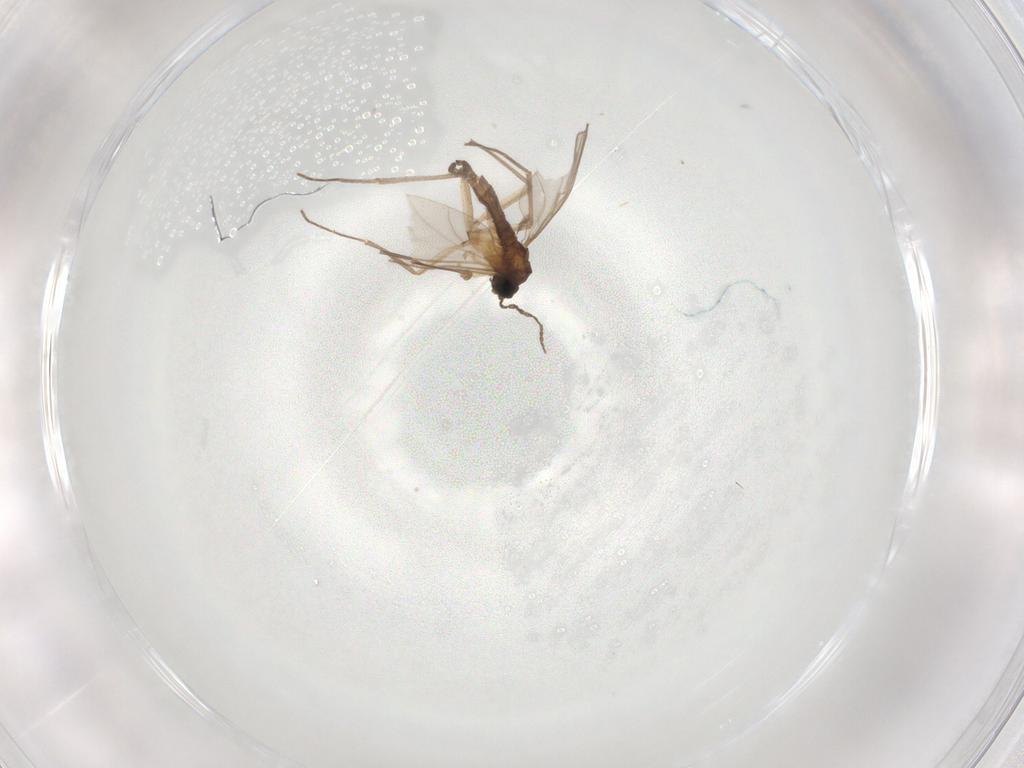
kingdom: Animalia
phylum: Arthropoda
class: Insecta
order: Diptera
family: Sciaridae
